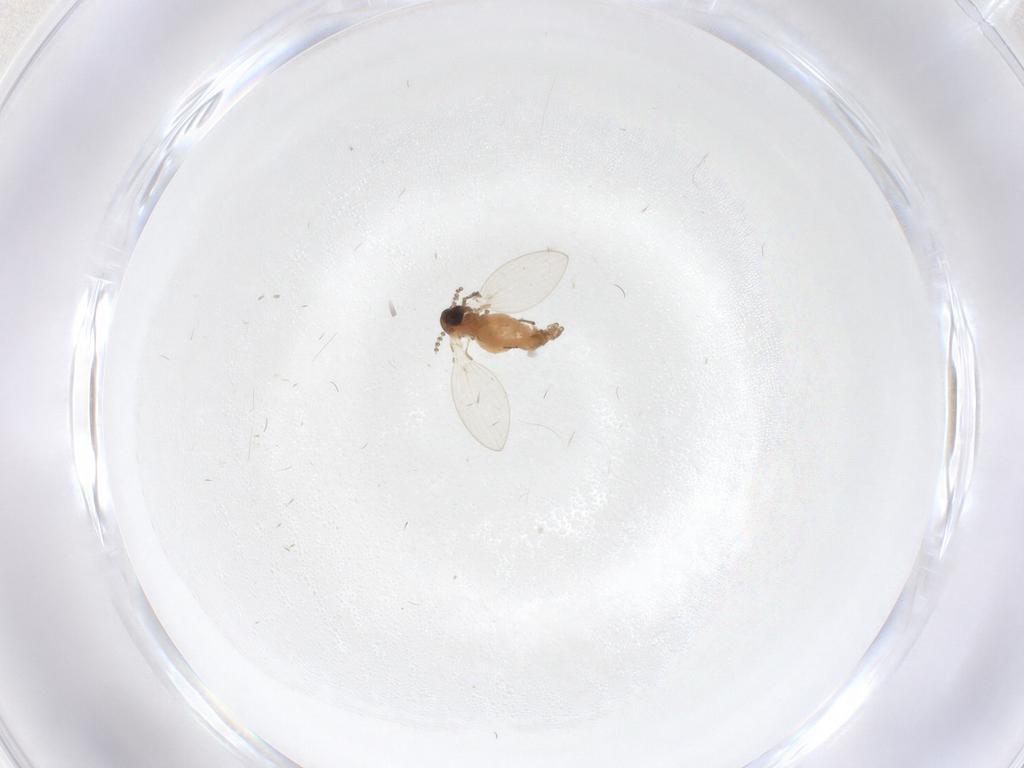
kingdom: Animalia
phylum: Arthropoda
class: Insecta
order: Diptera
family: Psychodidae
